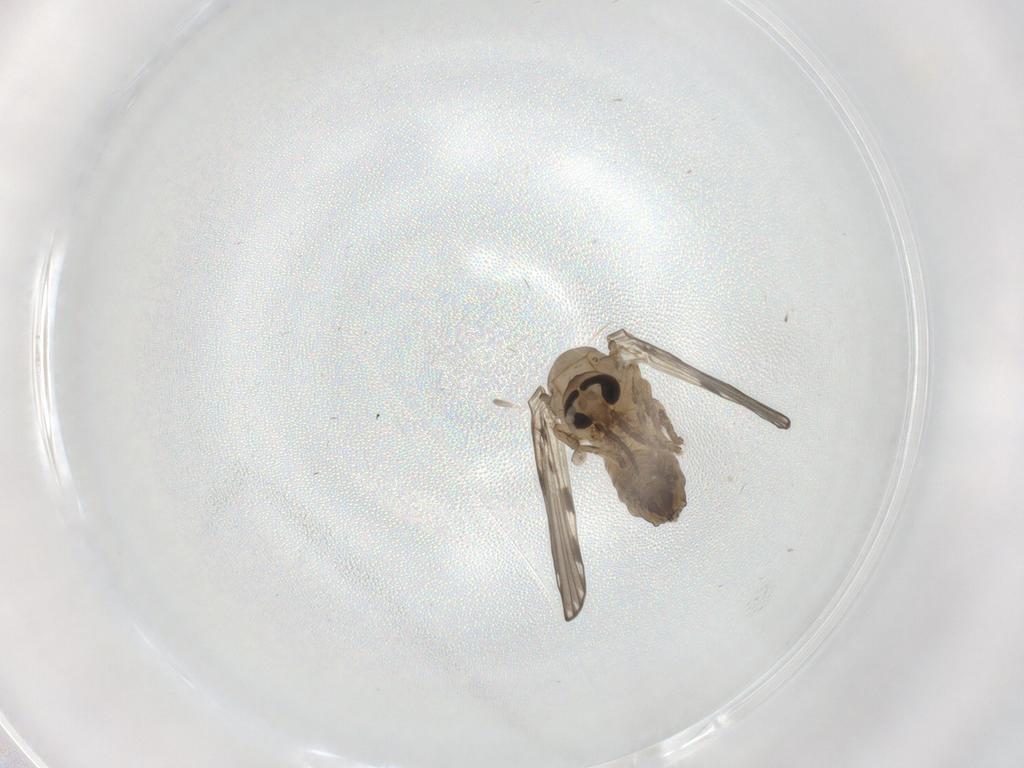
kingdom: Animalia
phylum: Arthropoda
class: Insecta
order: Diptera
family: Psychodidae
